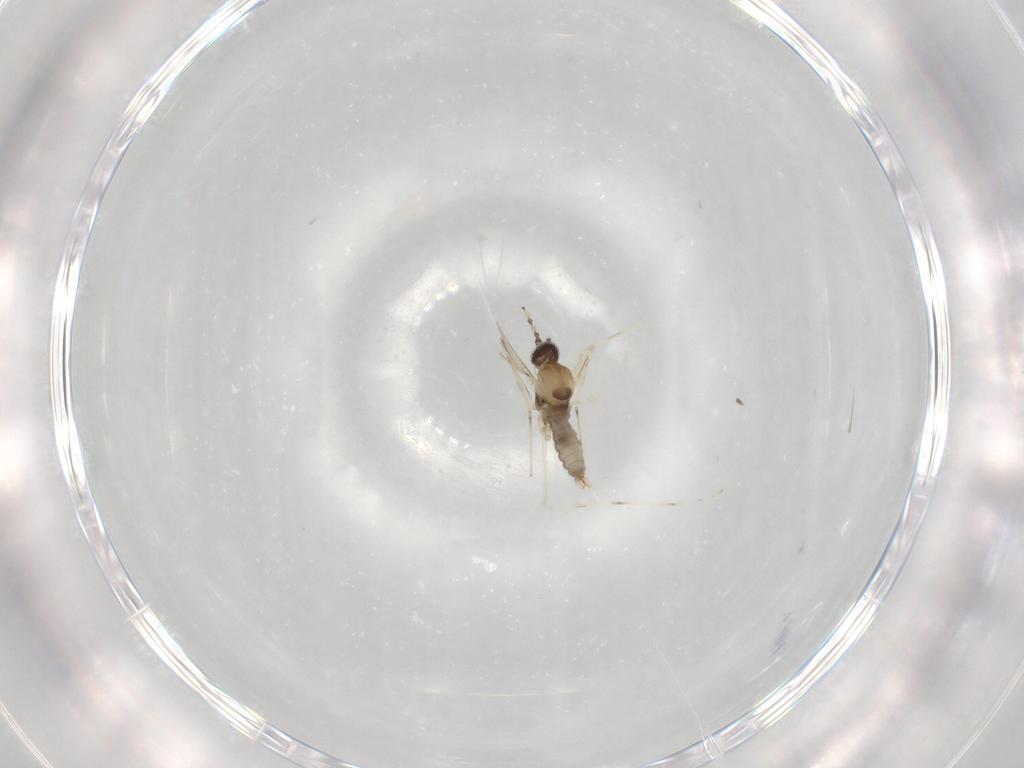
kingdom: Animalia
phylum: Arthropoda
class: Insecta
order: Diptera
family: Cecidomyiidae
